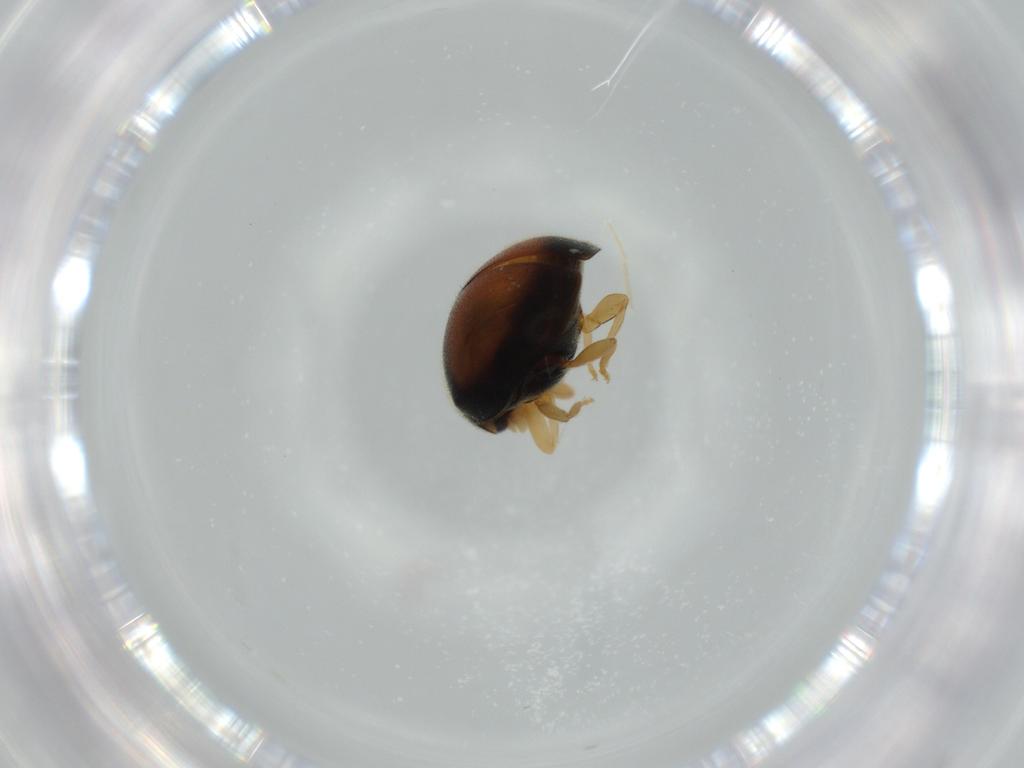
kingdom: Animalia
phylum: Arthropoda
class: Insecta
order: Coleoptera
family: Coccinellidae
